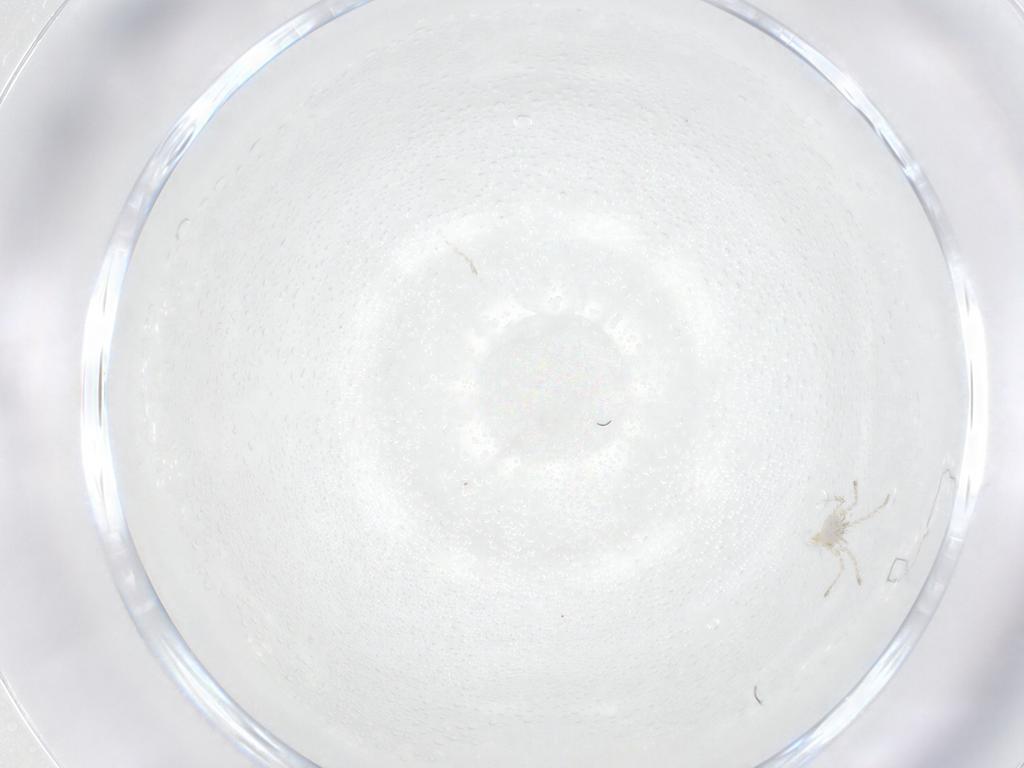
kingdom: Animalia
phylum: Arthropoda
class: Arachnida
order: Trombidiformes
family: Erythraeidae
